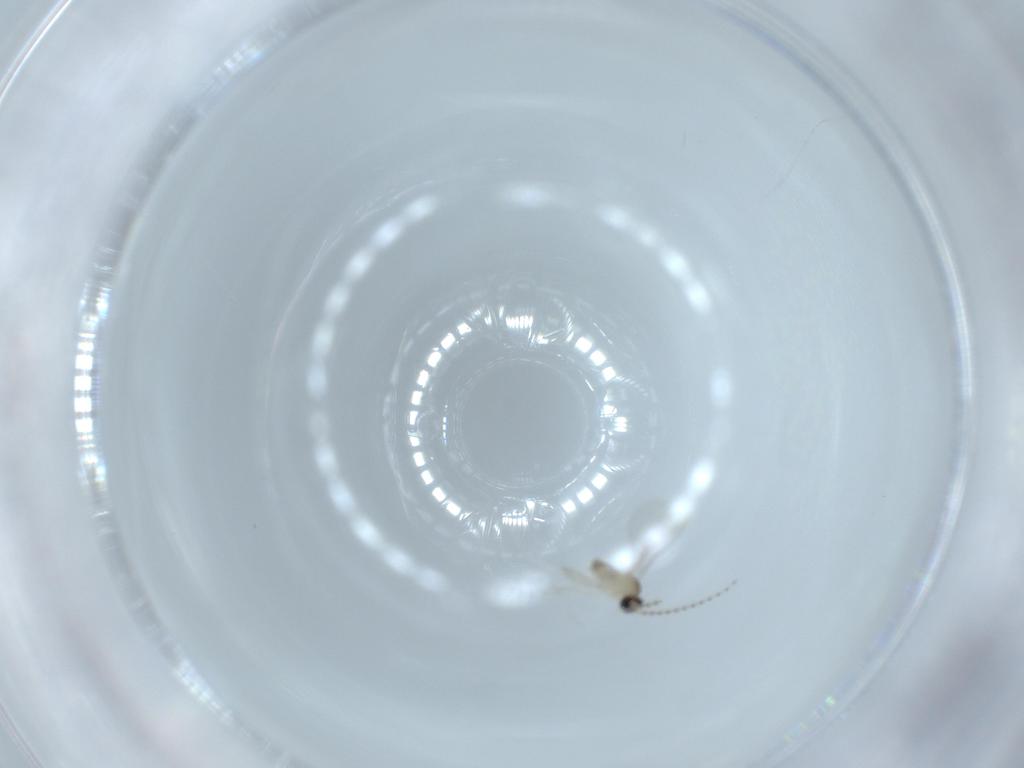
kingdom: Animalia
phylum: Arthropoda
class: Insecta
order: Diptera
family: Cecidomyiidae
